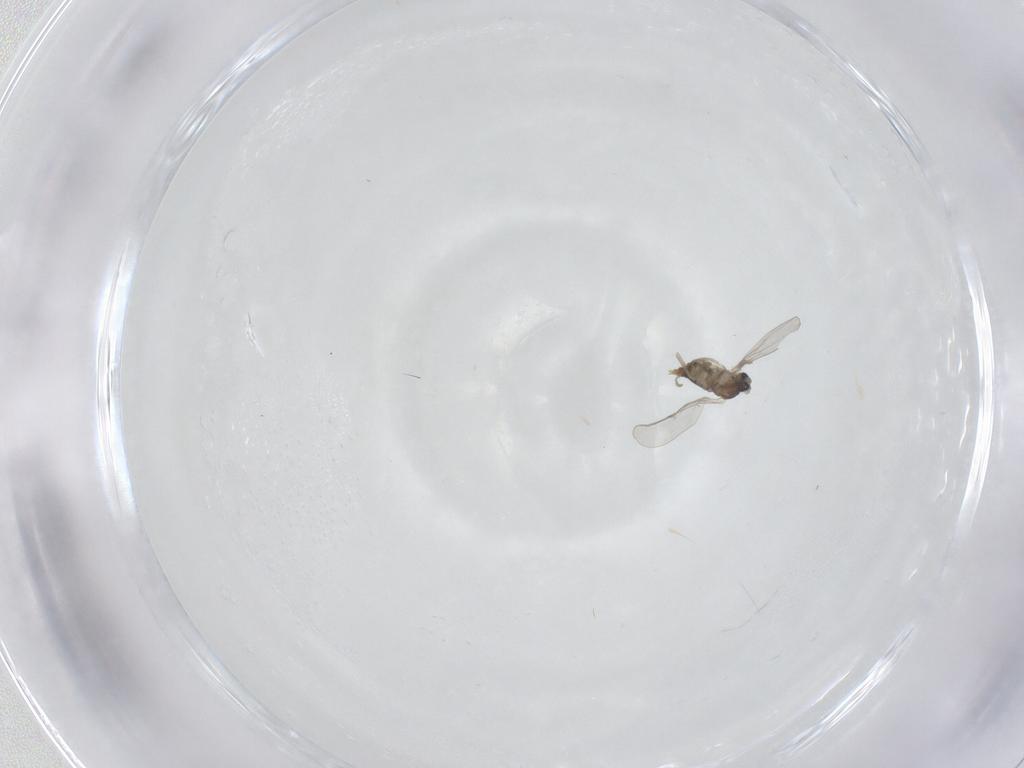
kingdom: Animalia
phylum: Arthropoda
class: Insecta
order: Diptera
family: Cecidomyiidae
